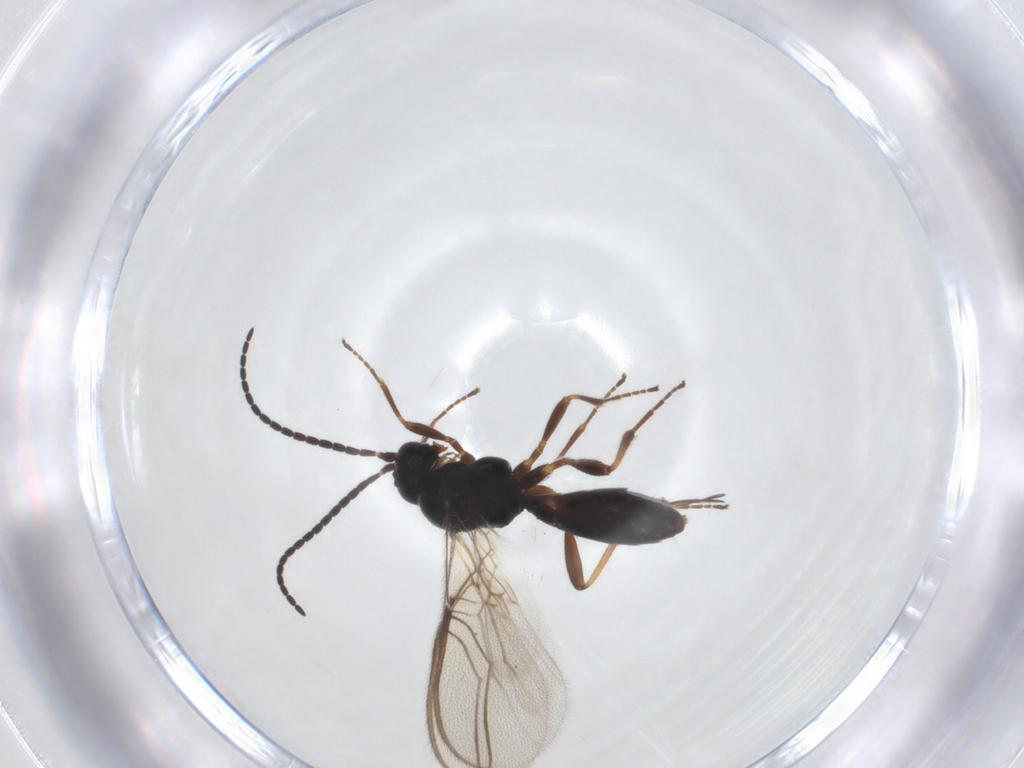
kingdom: Animalia
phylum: Arthropoda
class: Insecta
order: Hymenoptera
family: Braconidae
